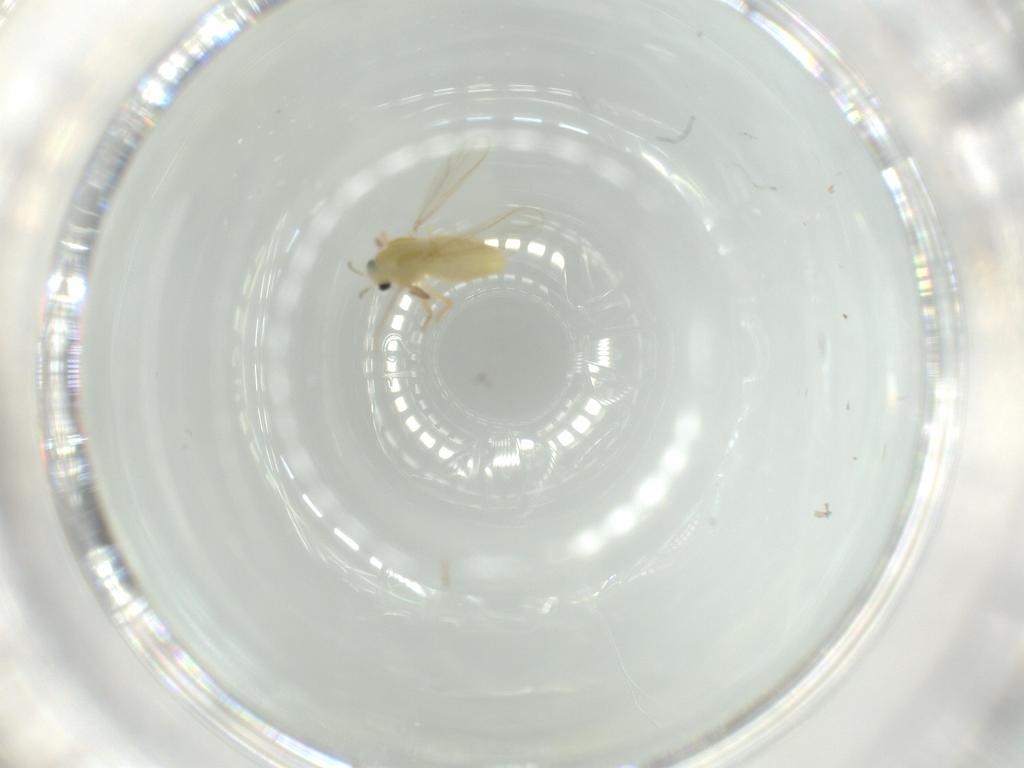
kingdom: Animalia
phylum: Arthropoda
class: Insecta
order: Diptera
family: Chironomidae
